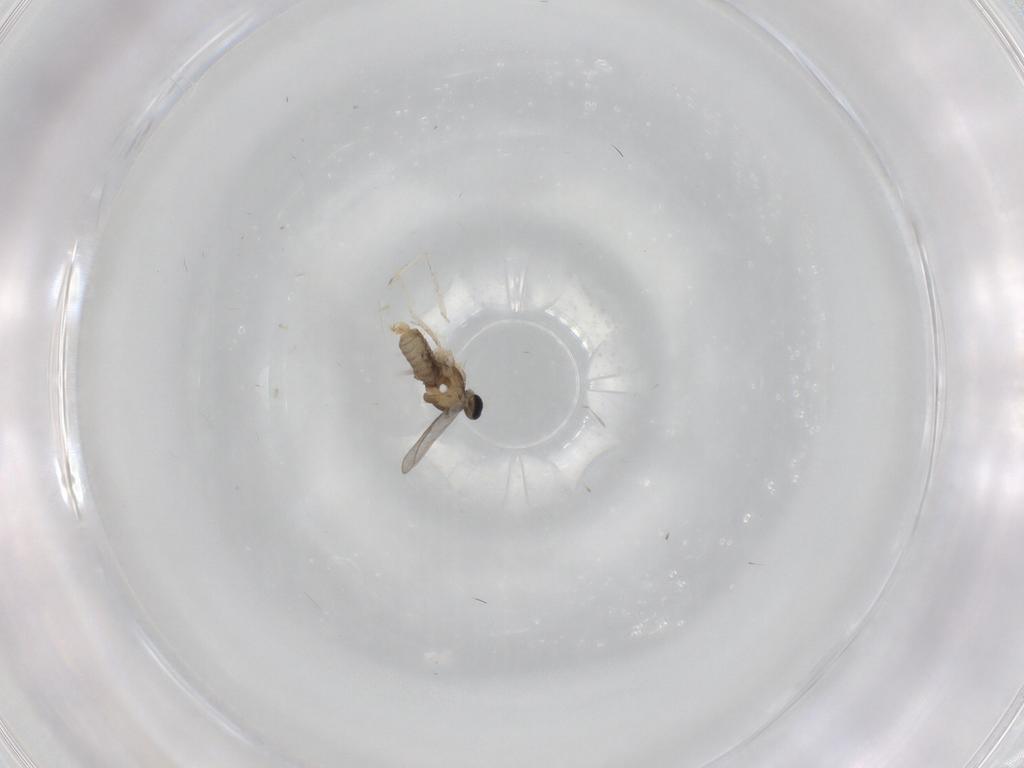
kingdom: Animalia
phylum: Arthropoda
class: Insecta
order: Diptera
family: Cecidomyiidae
